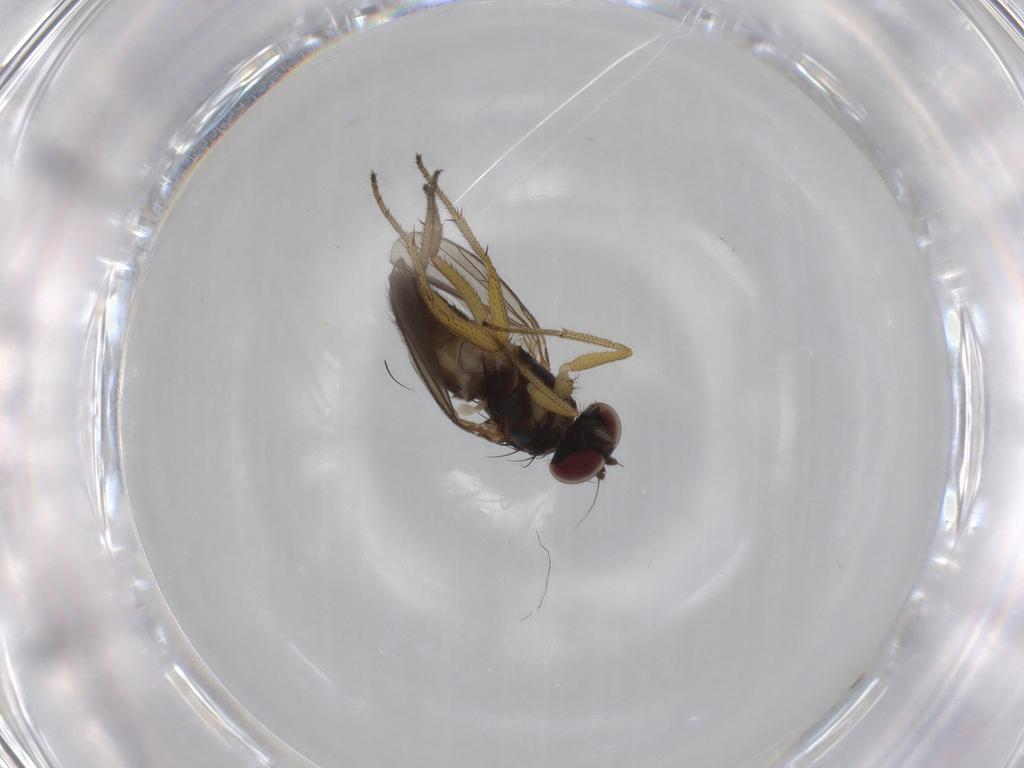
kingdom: Animalia
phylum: Arthropoda
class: Insecta
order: Diptera
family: Dolichopodidae
